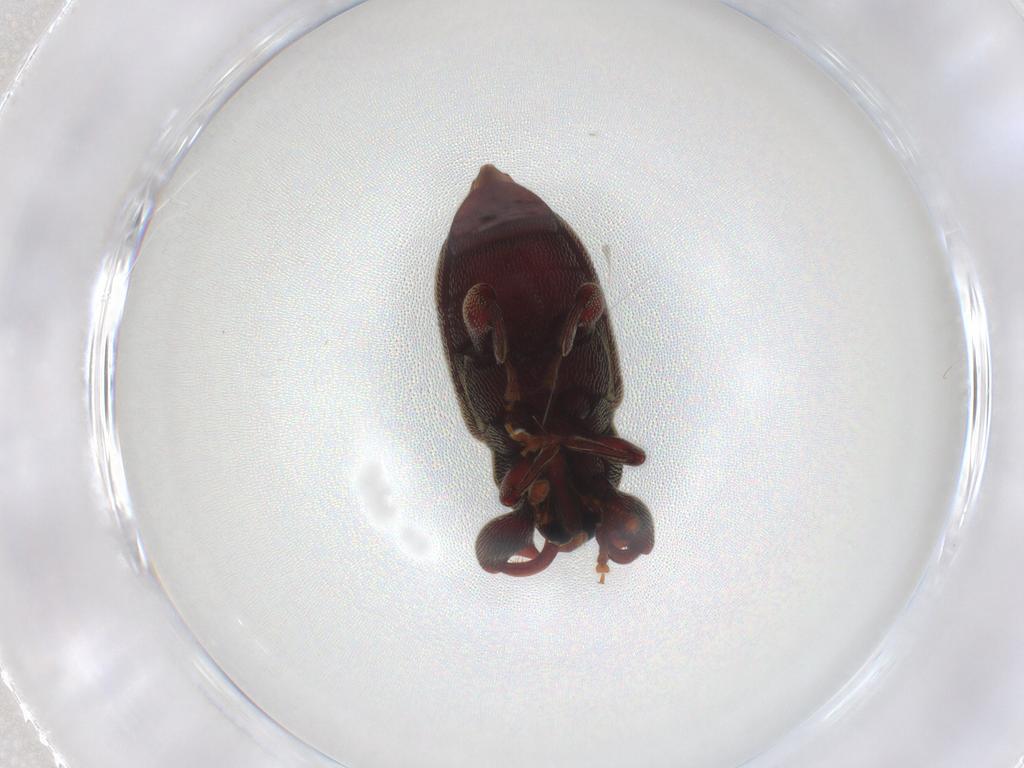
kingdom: Animalia
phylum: Arthropoda
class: Insecta
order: Coleoptera
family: Curculionidae
